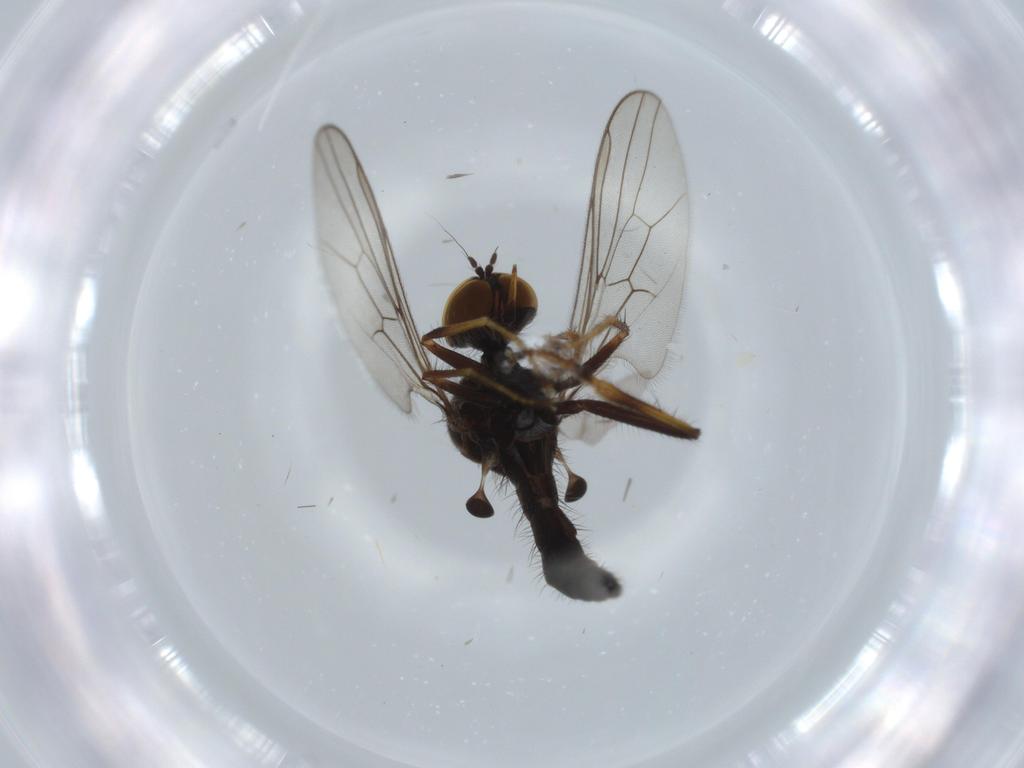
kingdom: Animalia
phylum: Arthropoda
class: Insecta
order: Diptera
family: Hybotidae
